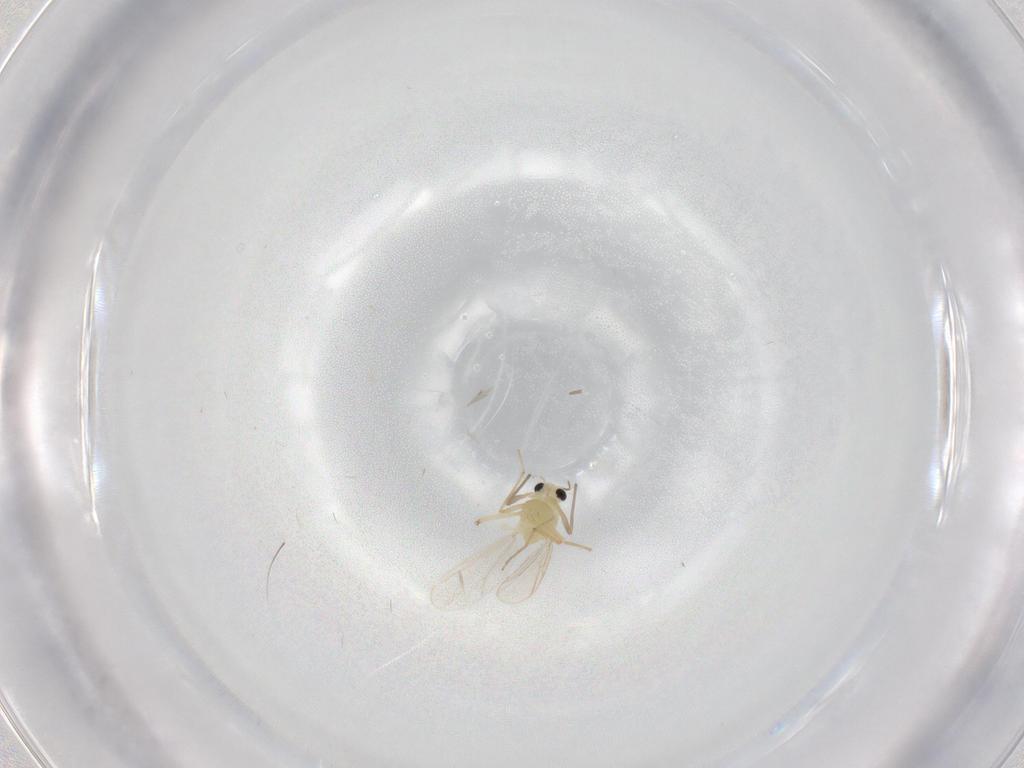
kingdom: Animalia
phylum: Arthropoda
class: Insecta
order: Diptera
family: Chironomidae
